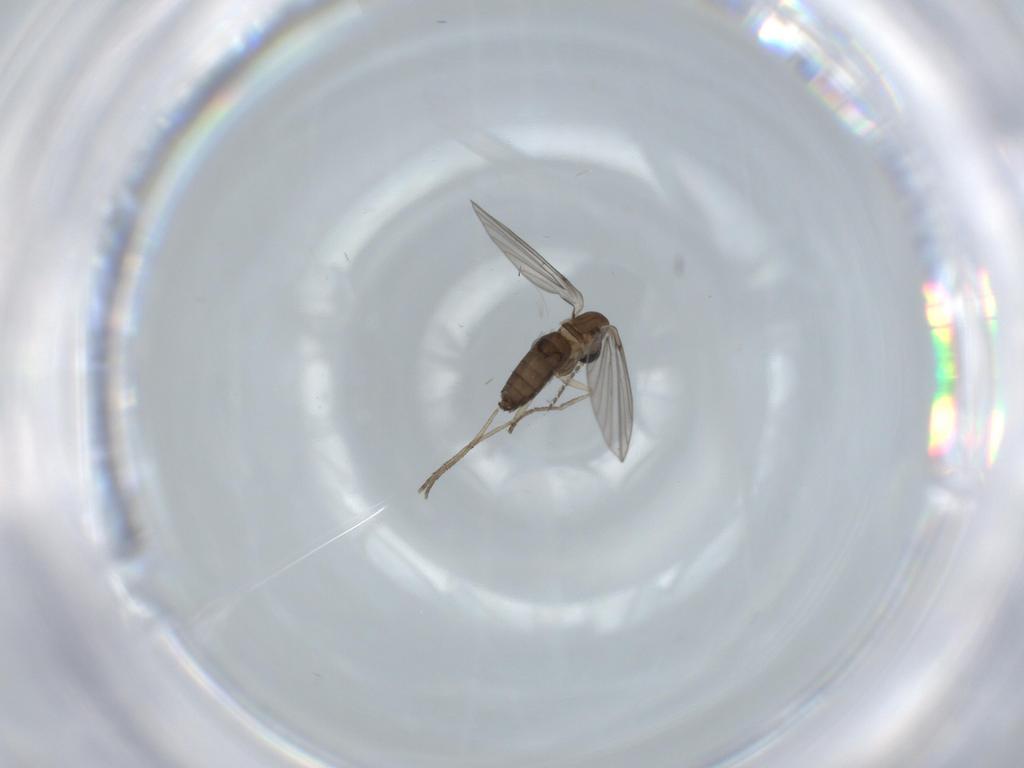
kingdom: Animalia
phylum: Arthropoda
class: Insecta
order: Diptera
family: Psychodidae
